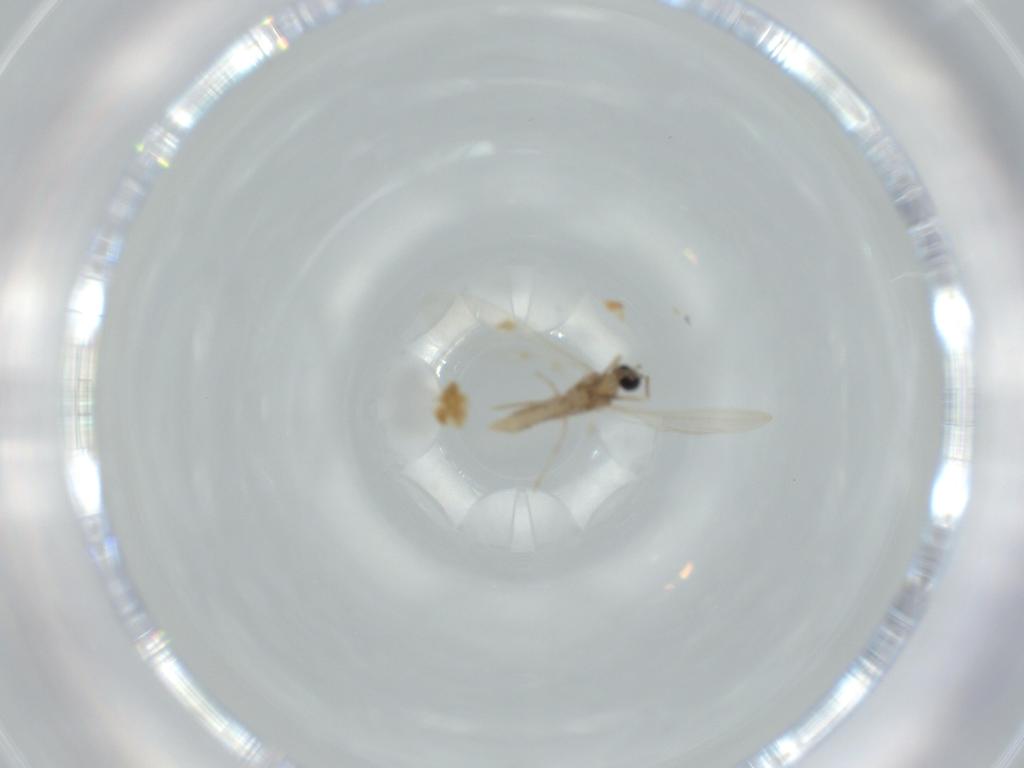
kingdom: Animalia
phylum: Arthropoda
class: Insecta
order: Diptera
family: Cecidomyiidae
